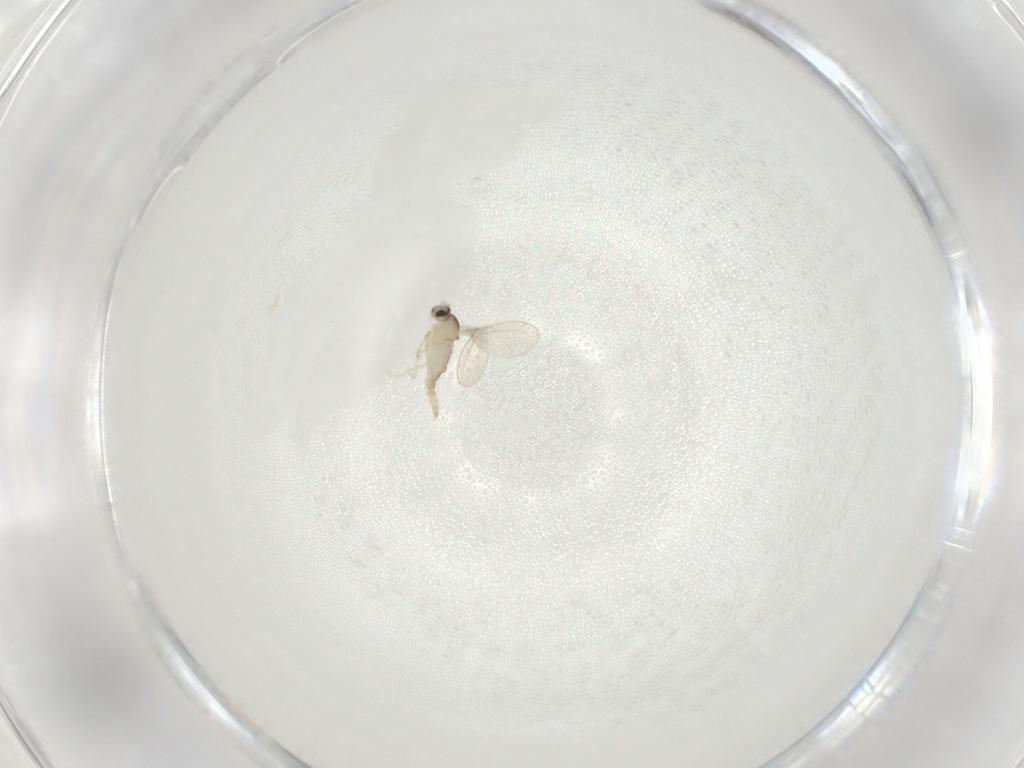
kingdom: Animalia
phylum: Arthropoda
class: Insecta
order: Diptera
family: Cecidomyiidae
